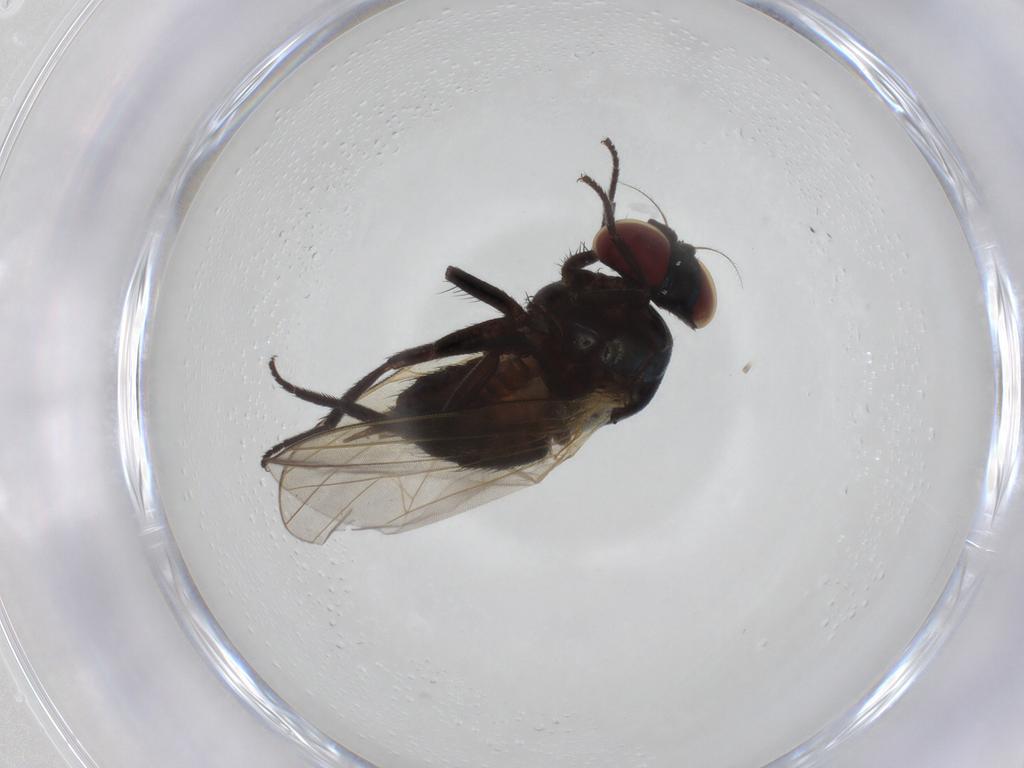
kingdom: Animalia
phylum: Arthropoda
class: Insecta
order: Diptera
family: Lonchaeidae
